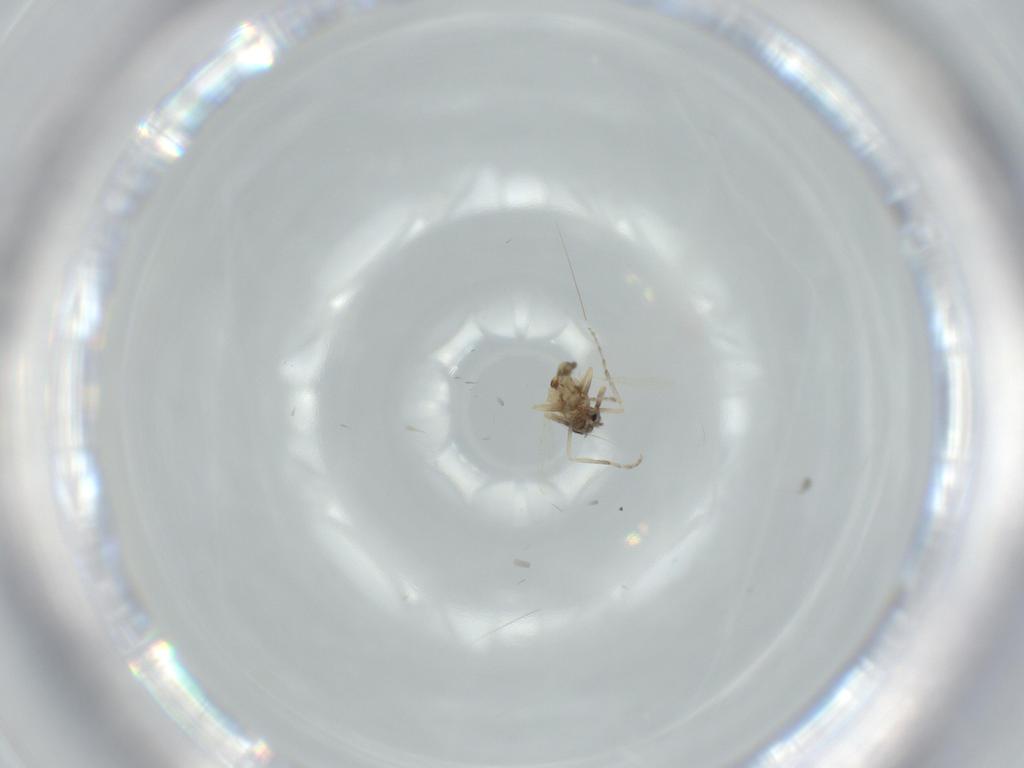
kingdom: Animalia
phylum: Arthropoda
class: Insecta
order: Diptera
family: Ceratopogonidae
